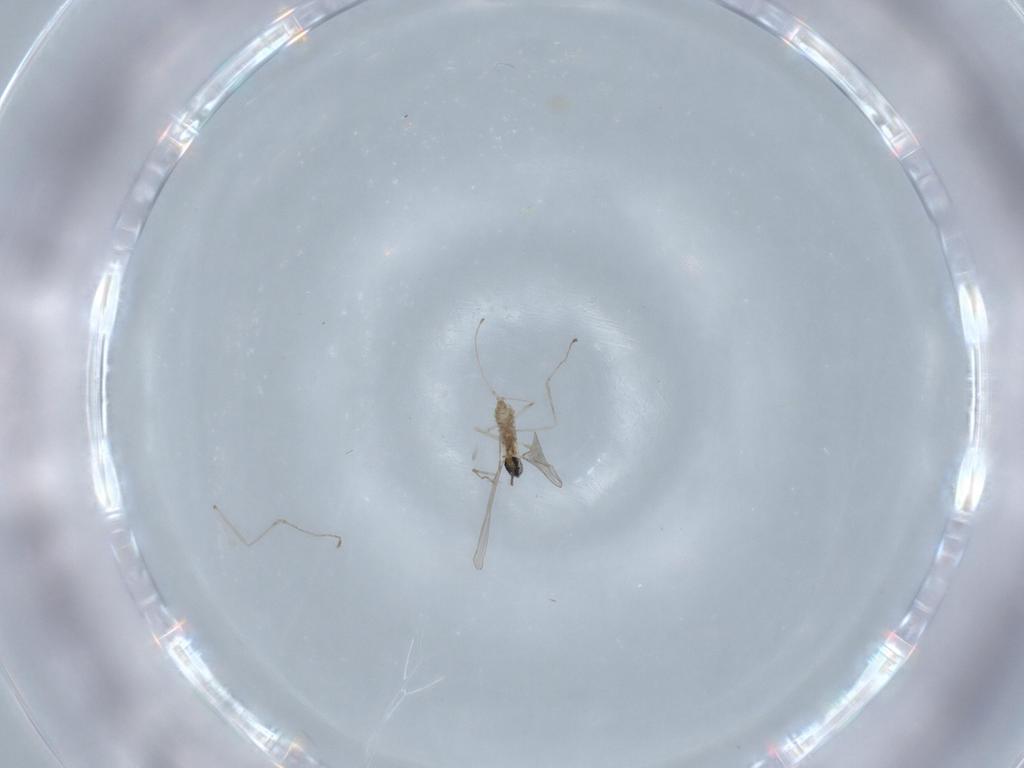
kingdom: Animalia
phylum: Arthropoda
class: Insecta
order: Diptera
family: Cecidomyiidae
